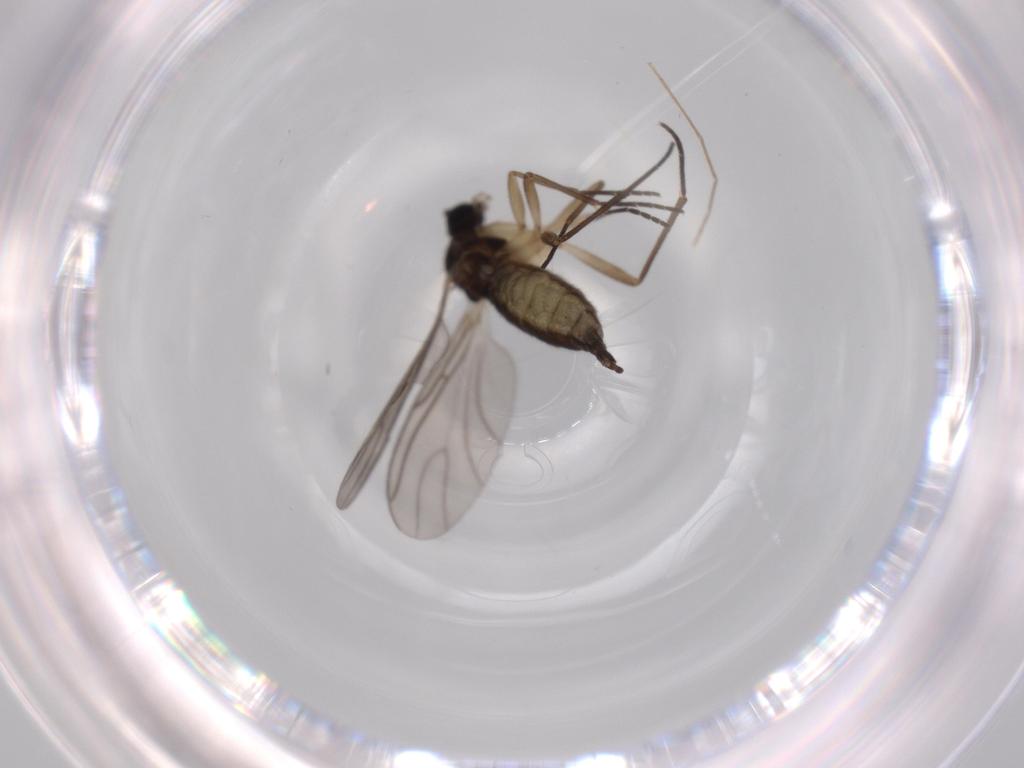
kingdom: Animalia
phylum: Arthropoda
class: Insecta
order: Diptera
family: Sciaridae
